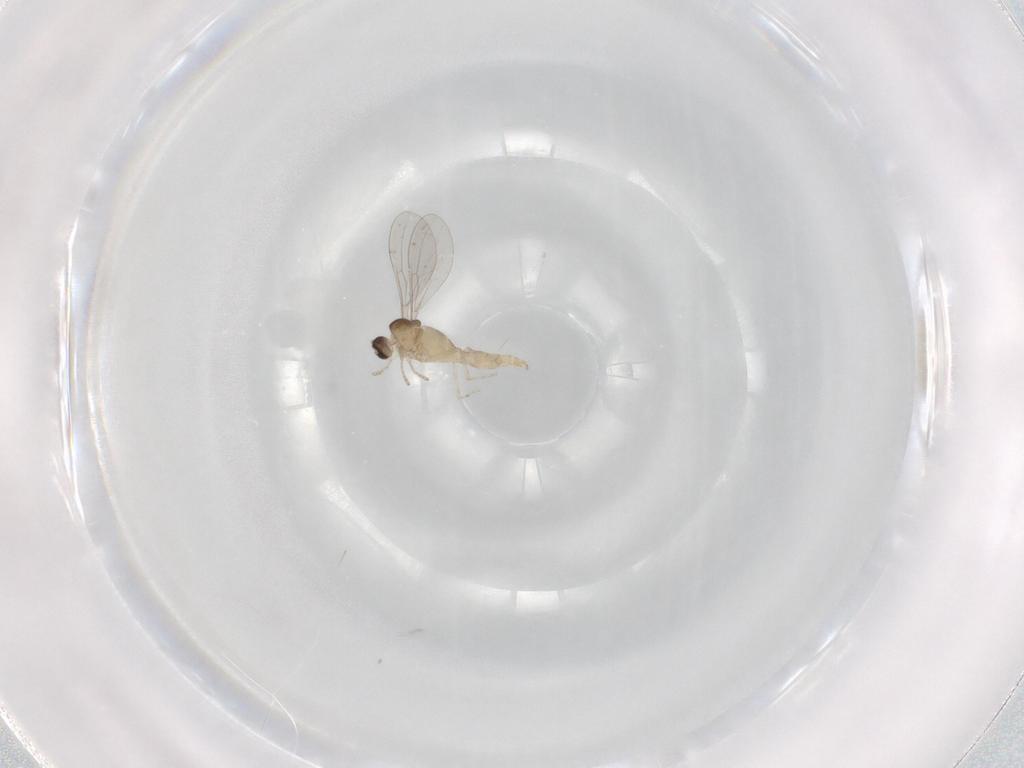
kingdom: Animalia
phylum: Arthropoda
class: Insecta
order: Diptera
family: Cecidomyiidae
